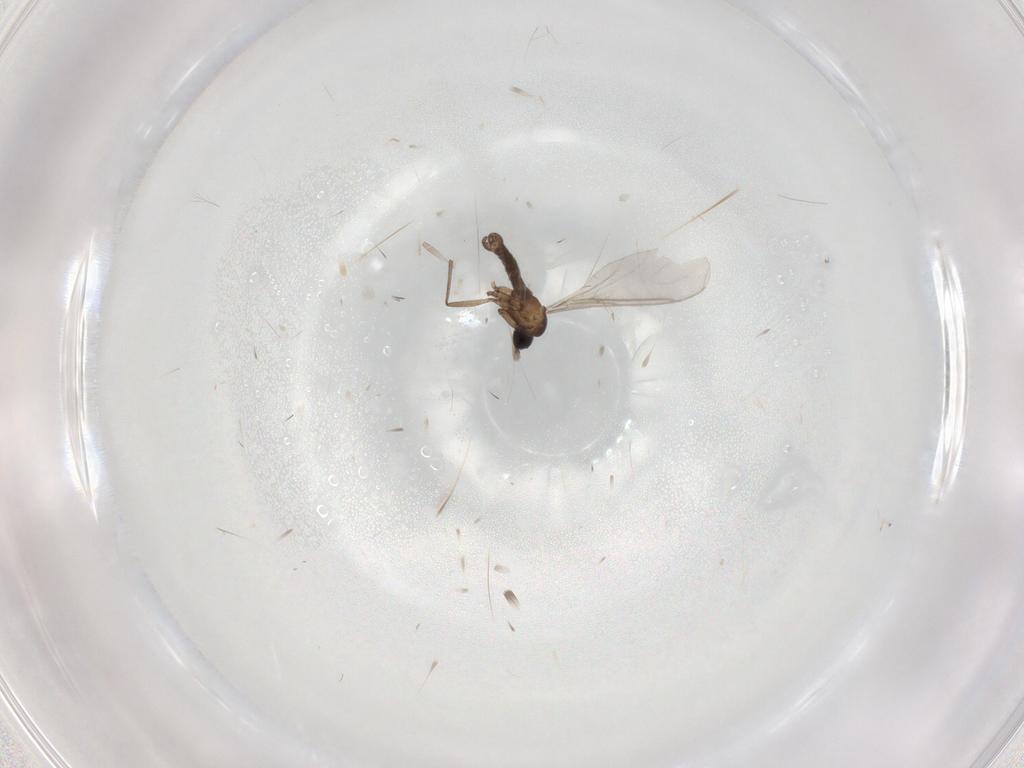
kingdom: Animalia
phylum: Arthropoda
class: Insecta
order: Diptera
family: Sciaridae
